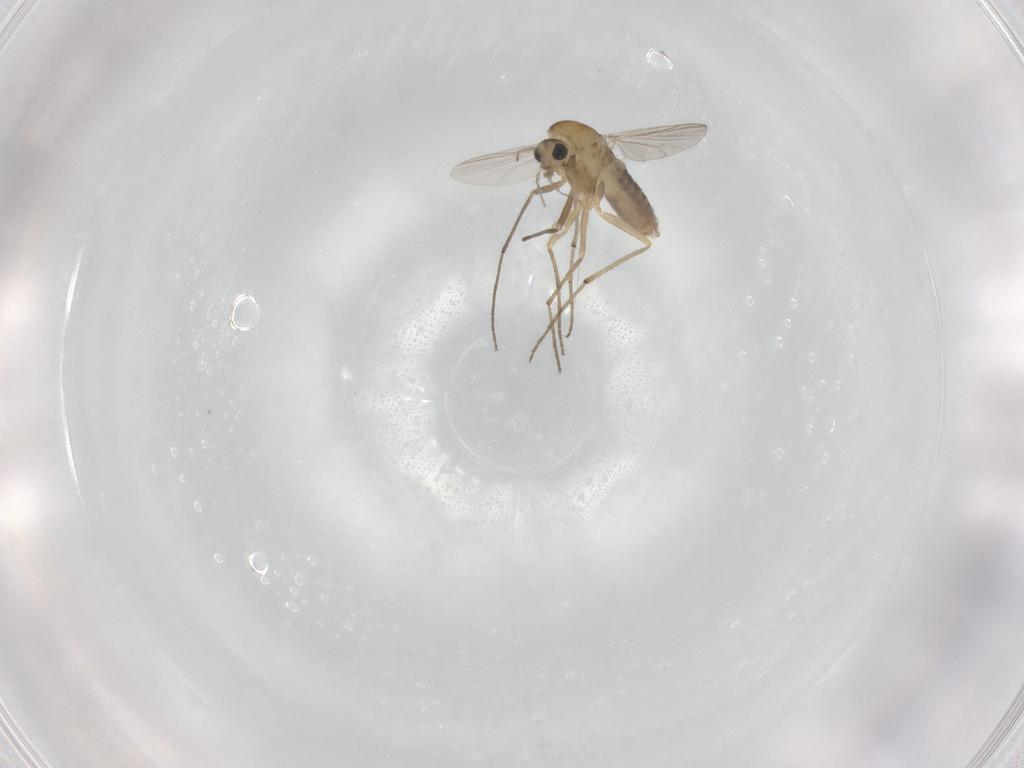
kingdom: Animalia
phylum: Arthropoda
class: Insecta
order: Diptera
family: Chironomidae
